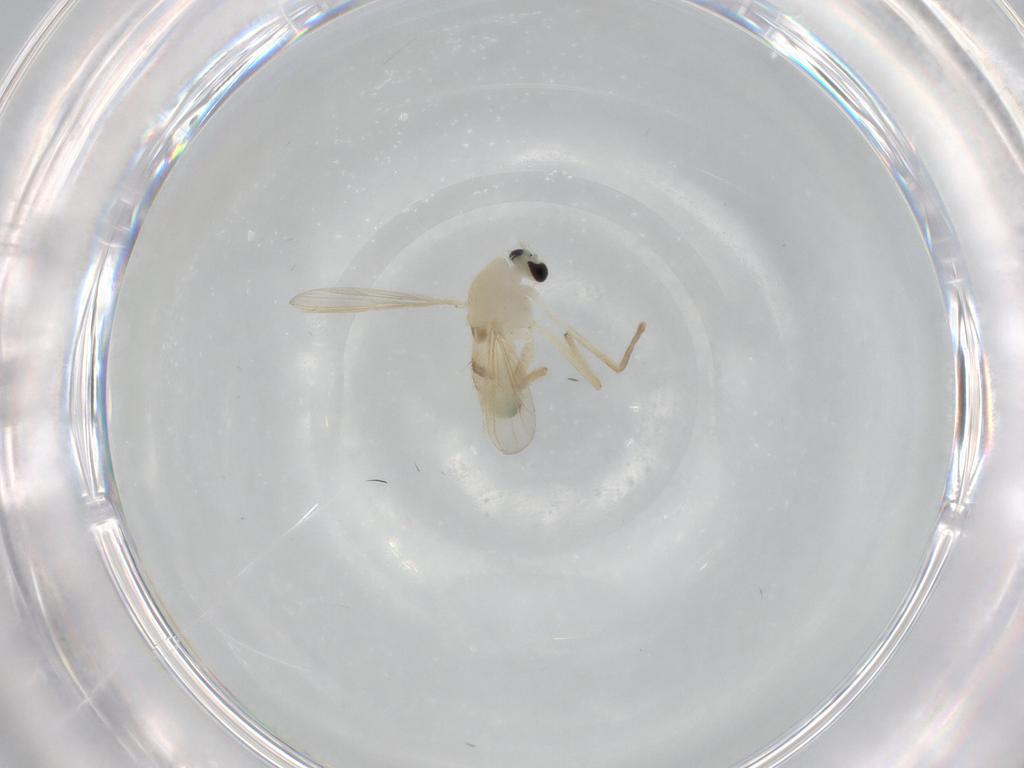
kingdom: Animalia
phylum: Arthropoda
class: Insecta
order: Diptera
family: Chironomidae
